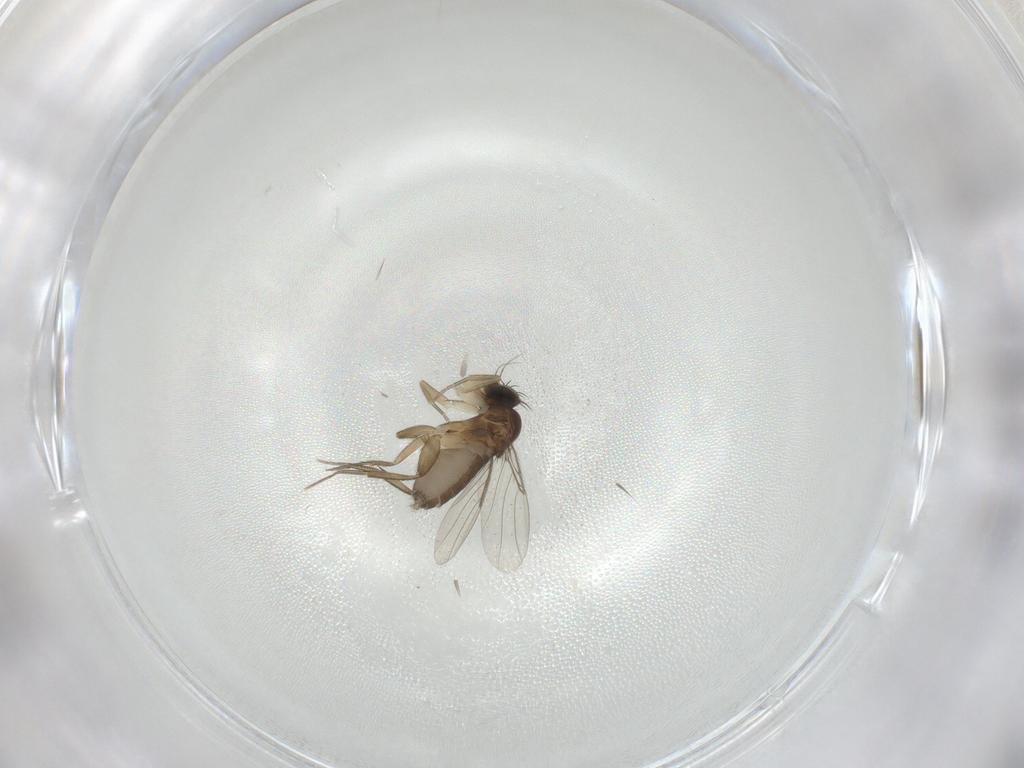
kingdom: Animalia
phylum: Arthropoda
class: Insecta
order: Diptera
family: Phoridae
